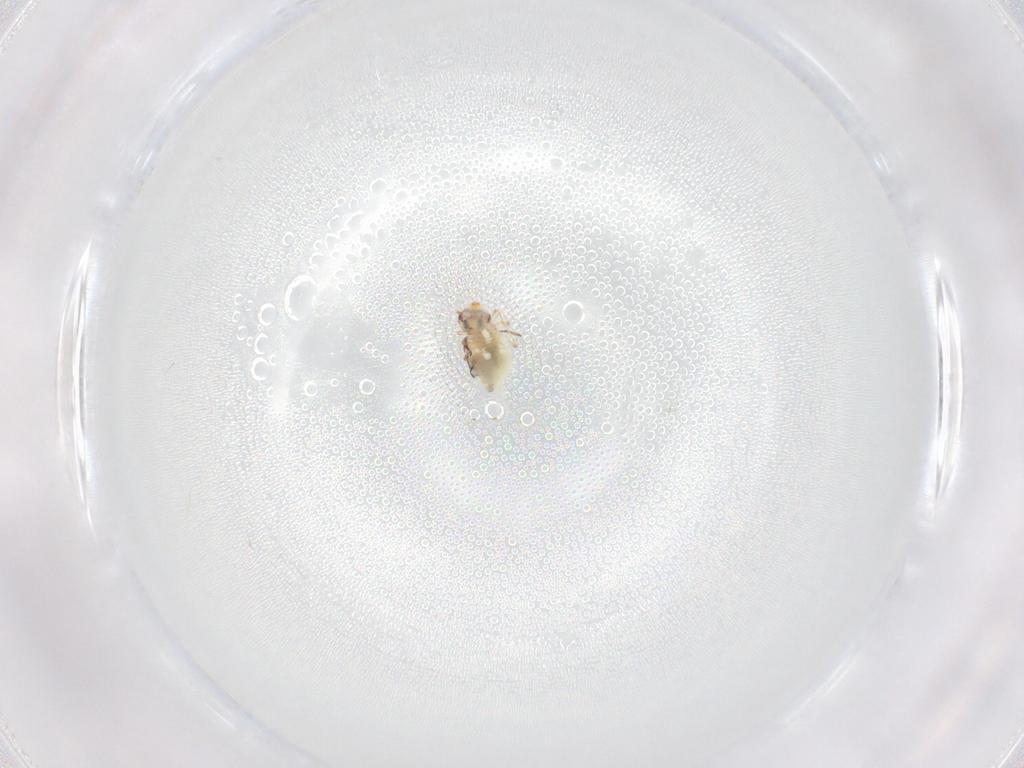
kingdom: Animalia
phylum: Arthropoda
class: Collembola
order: Symphypleona
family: Bourletiellidae
